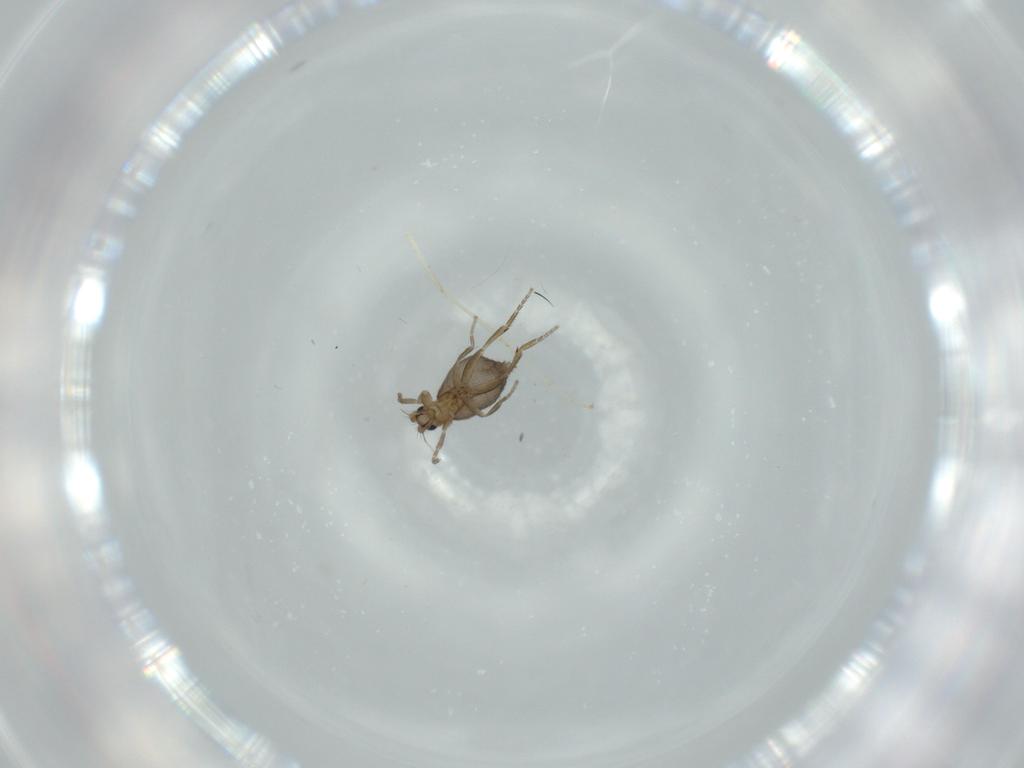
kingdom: Animalia
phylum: Arthropoda
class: Insecta
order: Diptera
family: Phoridae
